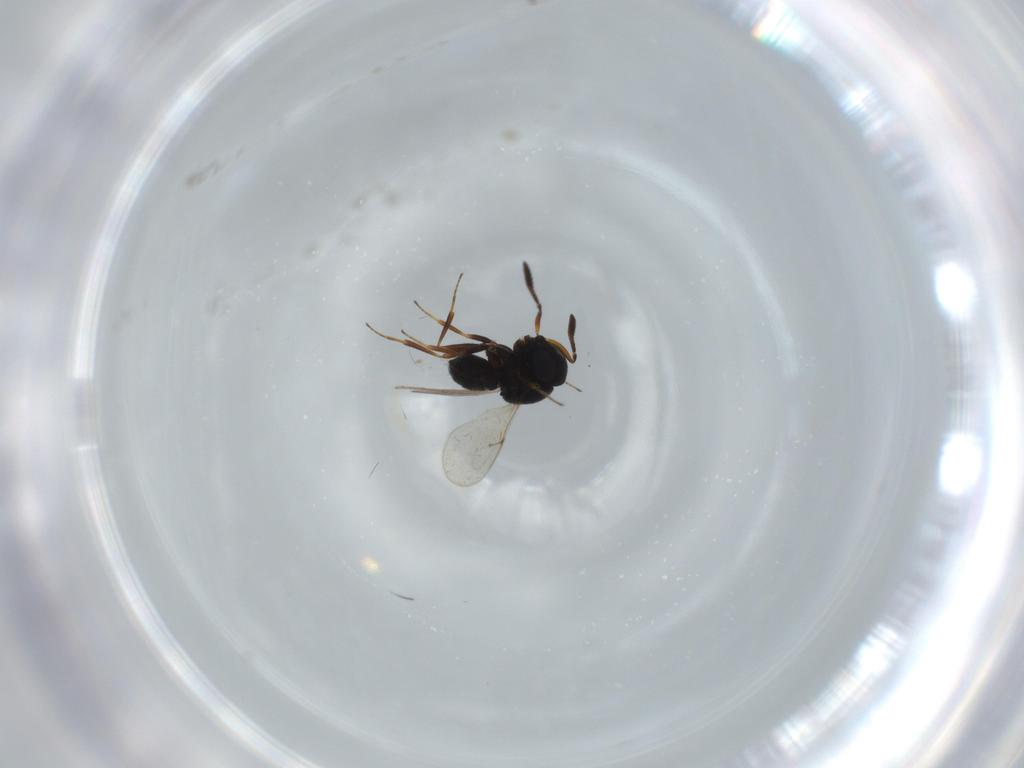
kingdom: Animalia
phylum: Arthropoda
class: Insecta
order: Hymenoptera
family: Scelionidae
